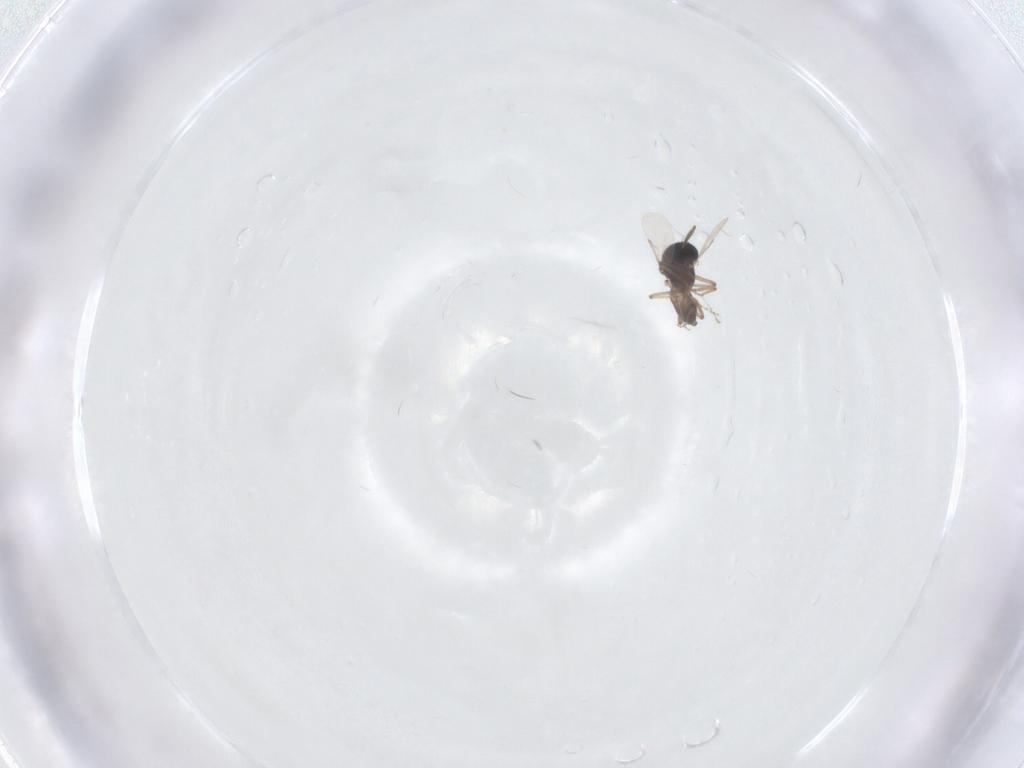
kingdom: Animalia
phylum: Arthropoda
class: Insecta
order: Diptera
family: Ceratopogonidae
